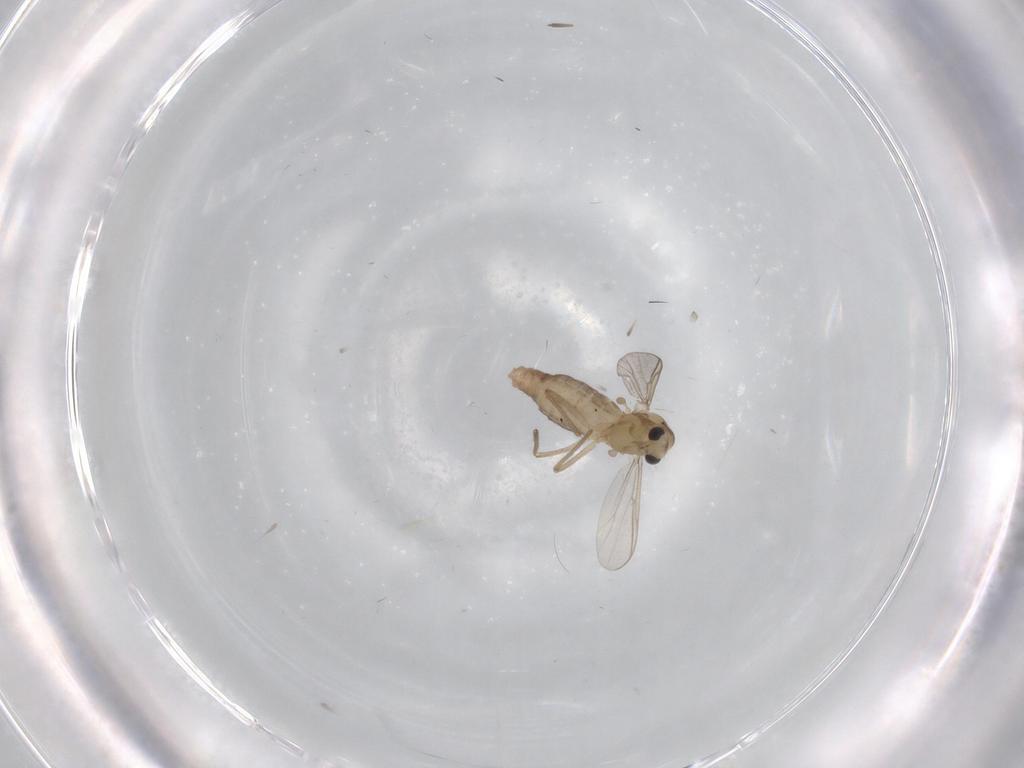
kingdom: Animalia
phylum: Arthropoda
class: Insecta
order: Diptera
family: Chironomidae
